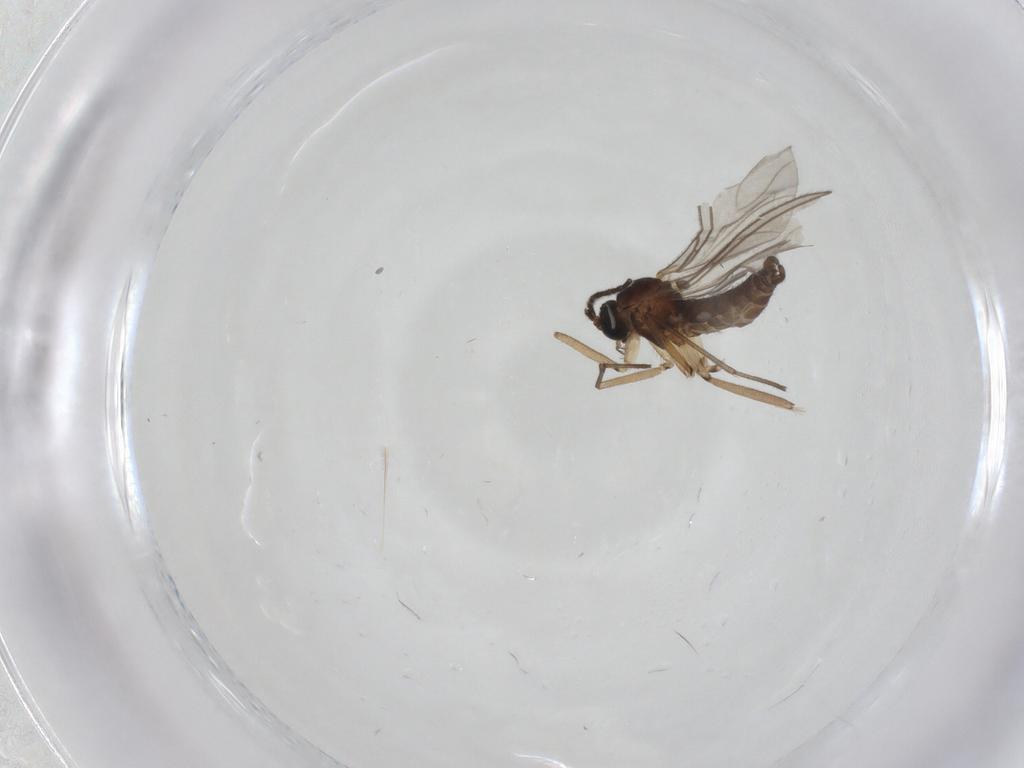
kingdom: Animalia
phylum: Arthropoda
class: Insecta
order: Diptera
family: Sciaridae
